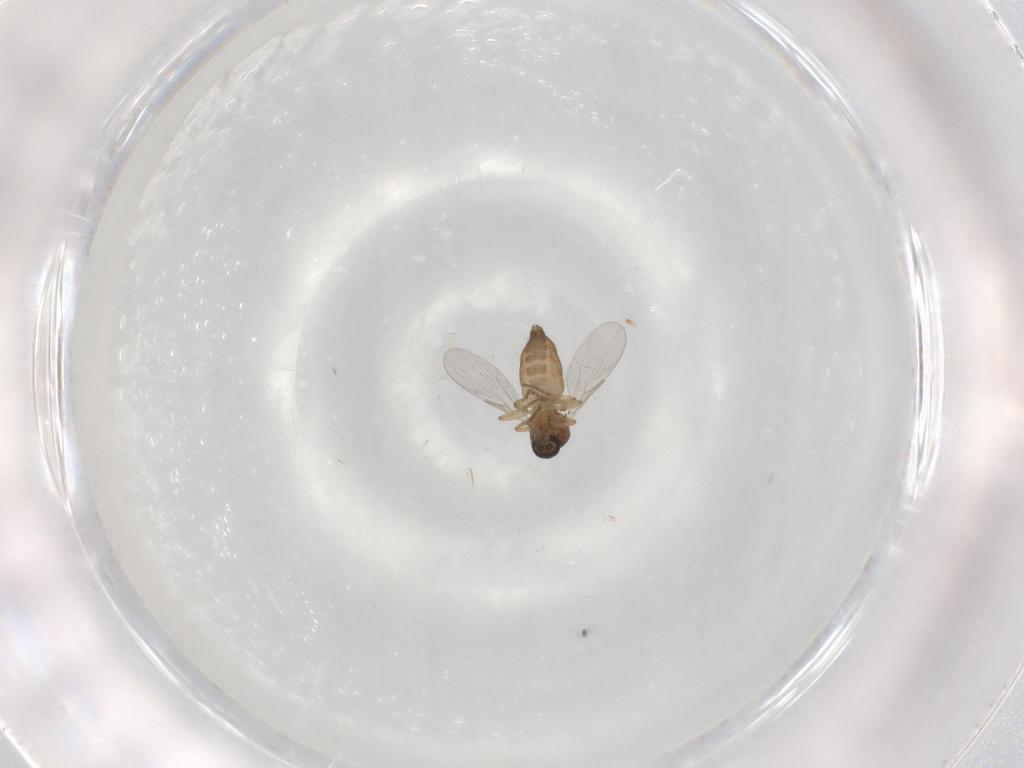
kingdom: Animalia
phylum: Arthropoda
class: Insecta
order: Diptera
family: Ceratopogonidae
